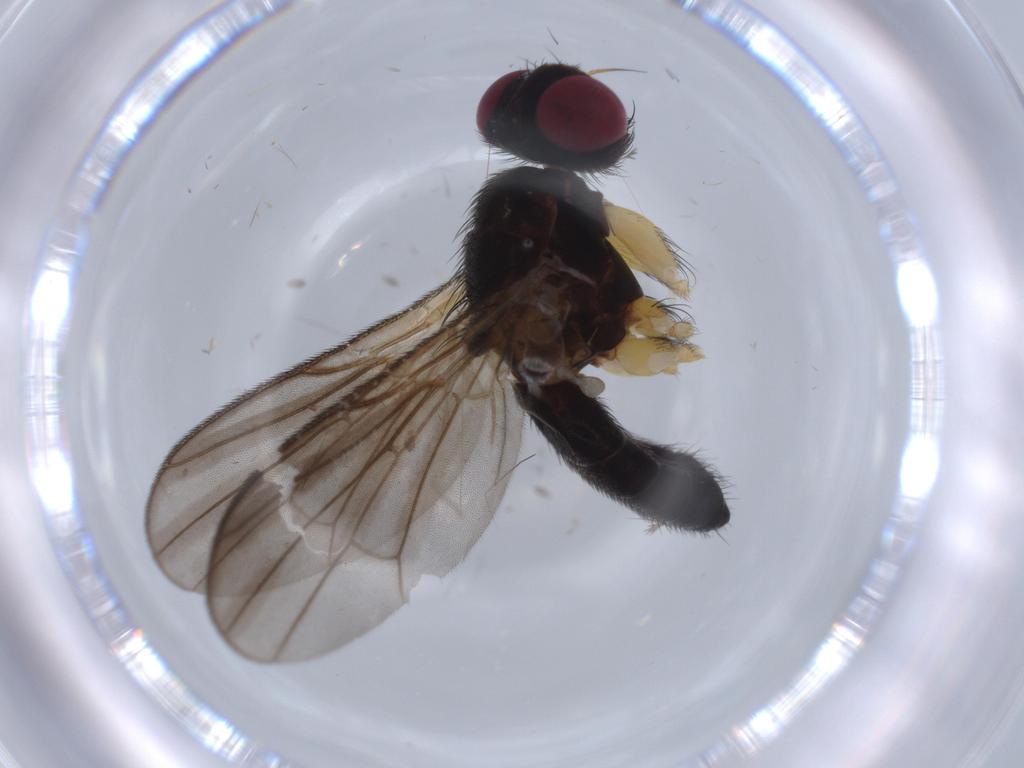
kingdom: Animalia
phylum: Arthropoda
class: Insecta
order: Diptera
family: Calliphoridae
